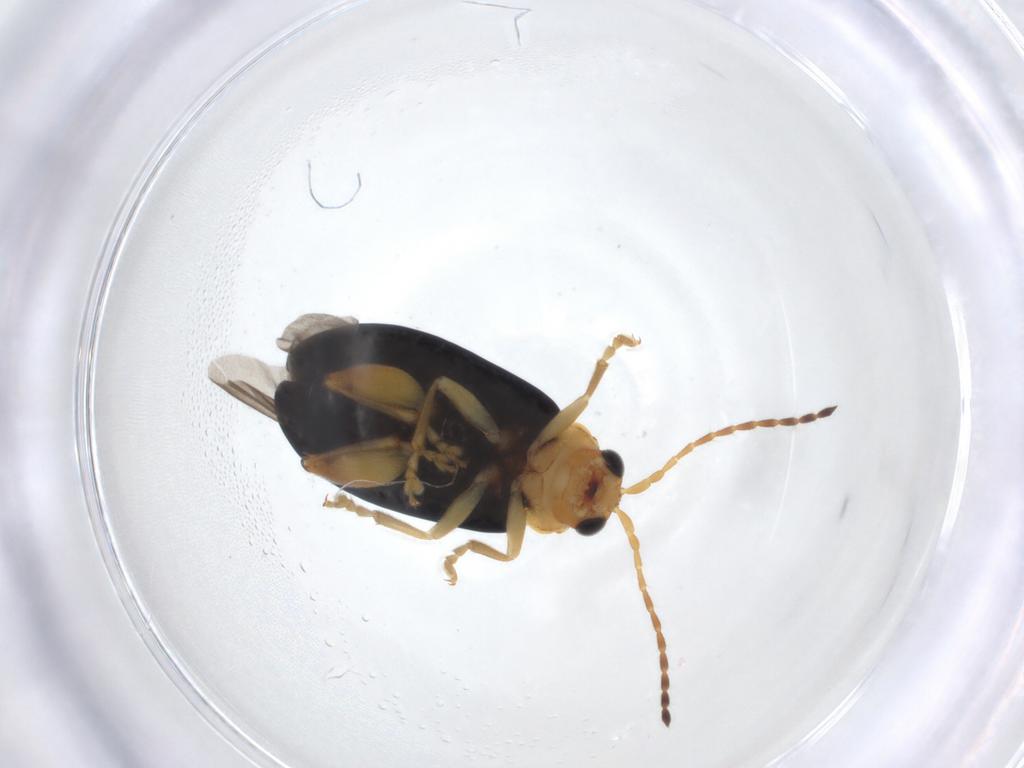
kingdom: Animalia
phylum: Arthropoda
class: Insecta
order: Coleoptera
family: Chrysomelidae
